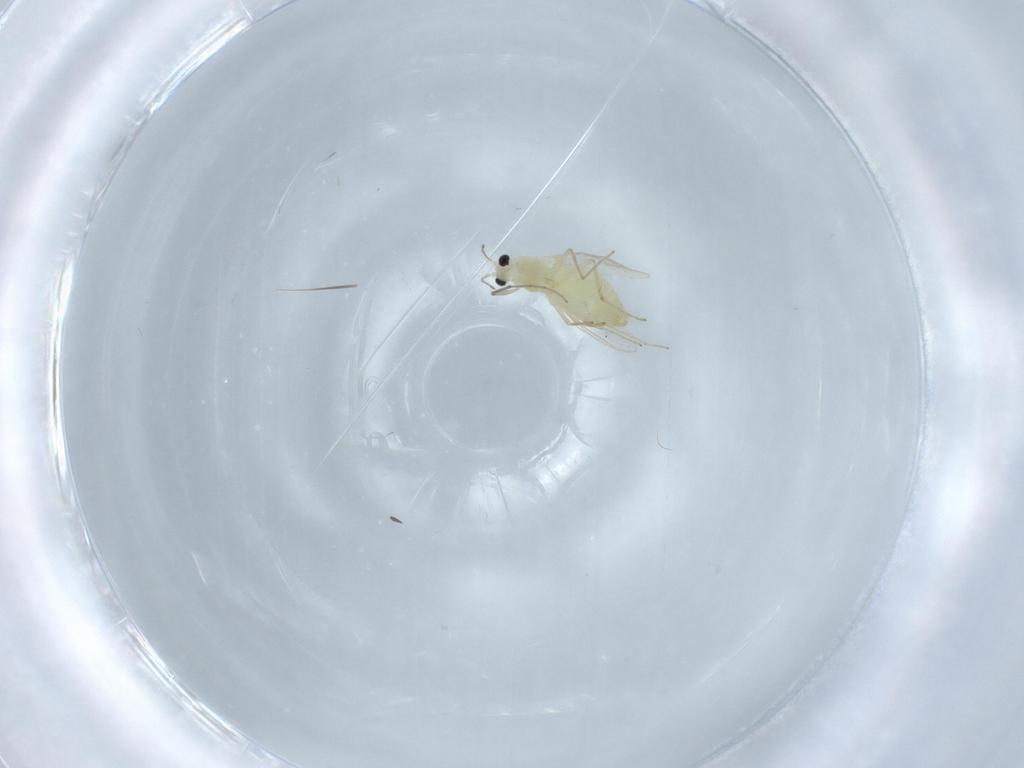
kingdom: Animalia
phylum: Arthropoda
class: Insecta
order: Diptera
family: Chironomidae
